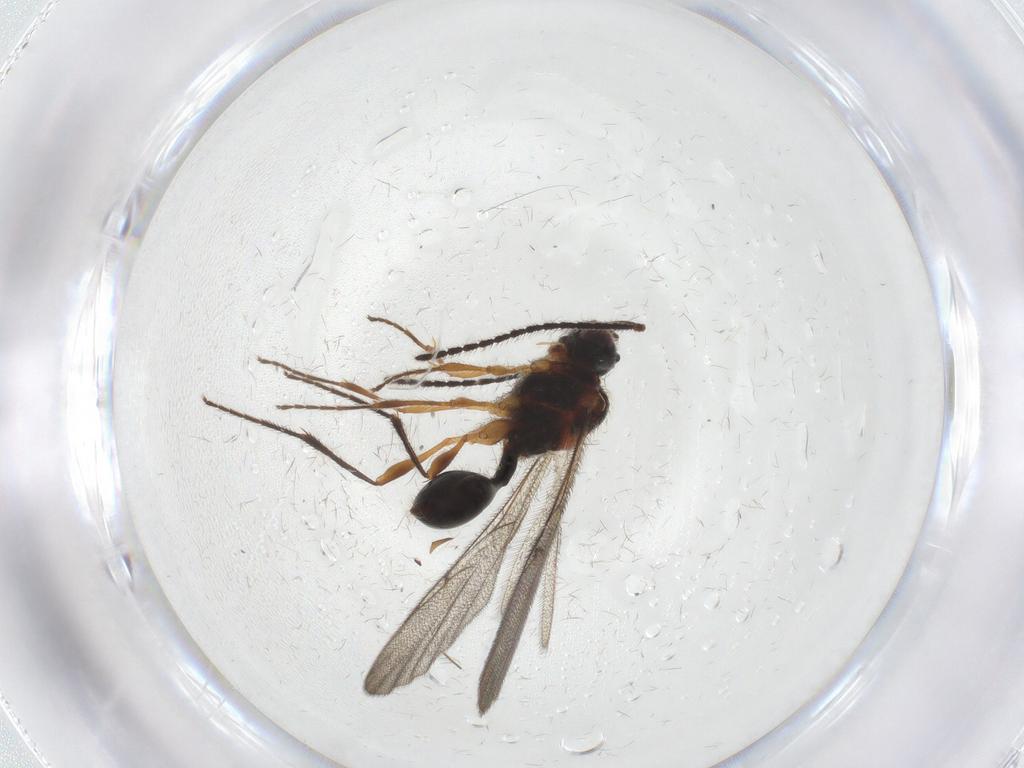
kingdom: Animalia
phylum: Arthropoda
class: Insecta
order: Hymenoptera
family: Diapriidae
